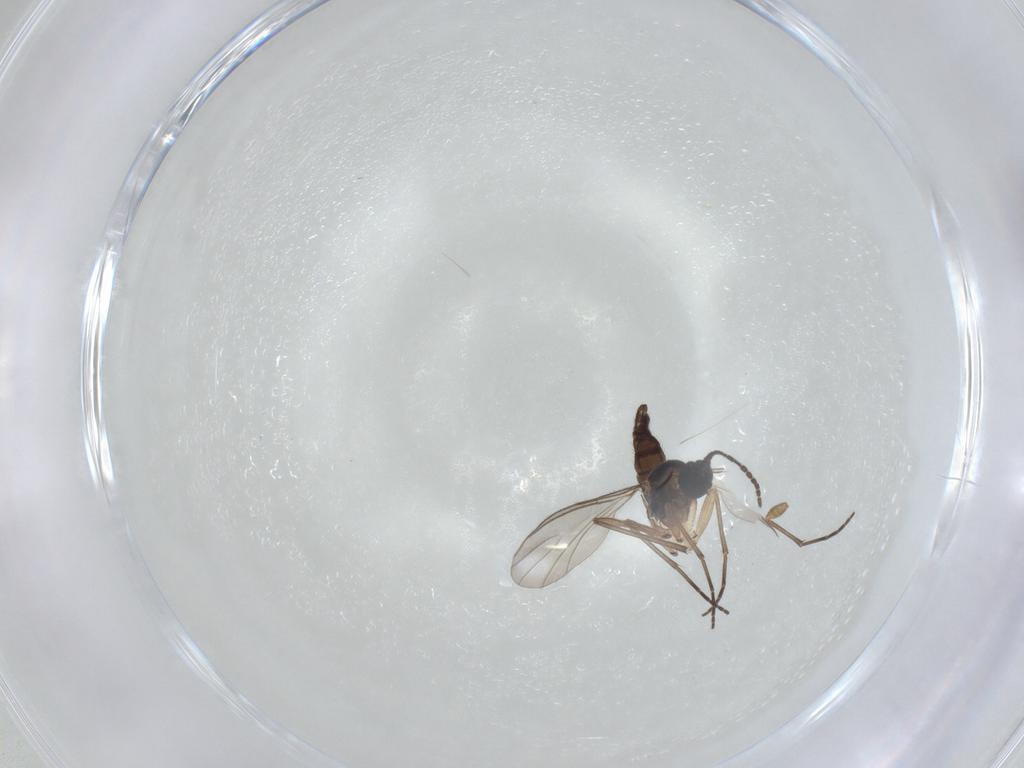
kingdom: Animalia
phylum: Arthropoda
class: Insecta
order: Diptera
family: Sciaridae
